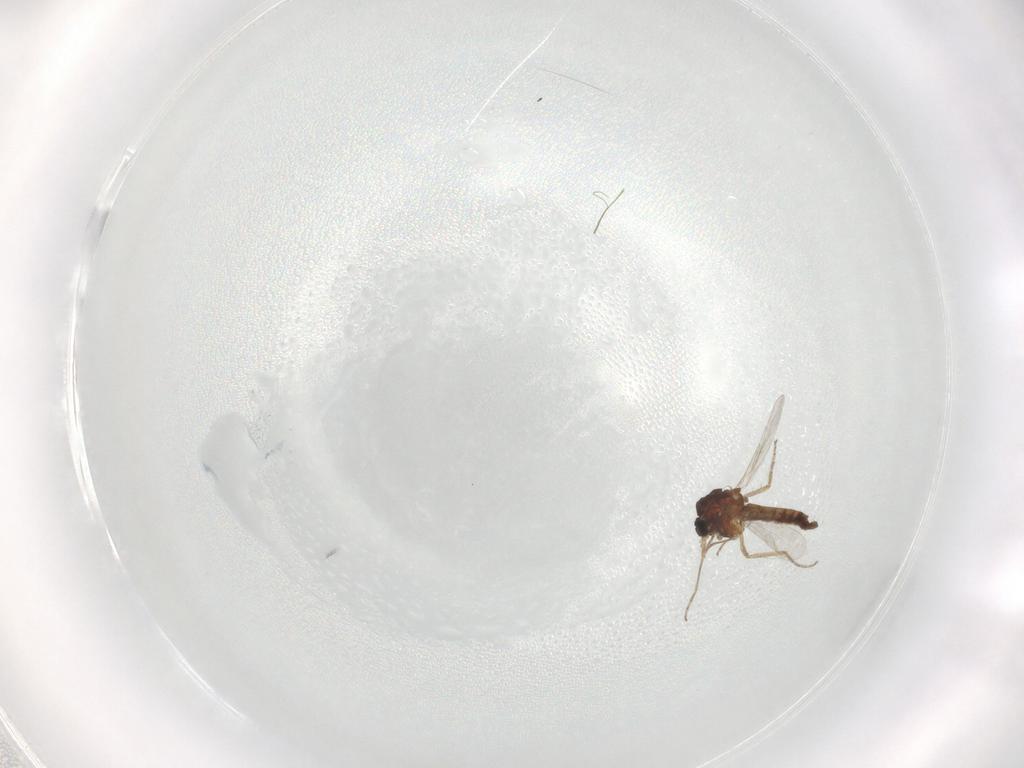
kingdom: Animalia
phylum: Arthropoda
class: Insecta
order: Diptera
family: Ceratopogonidae
